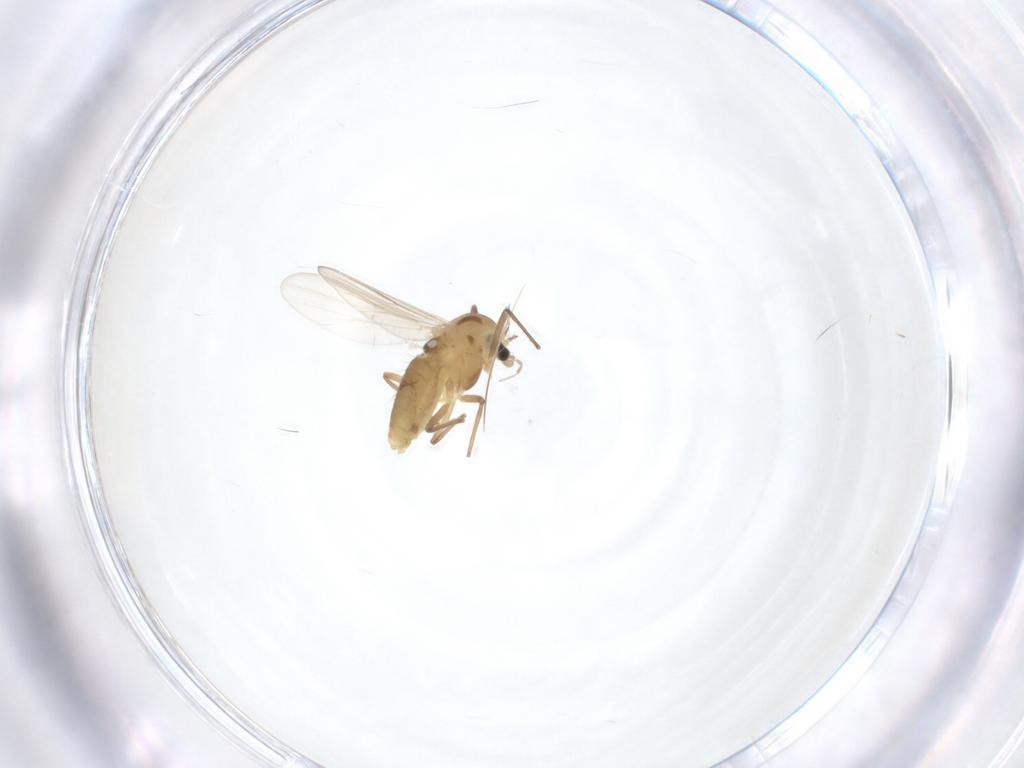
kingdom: Animalia
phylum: Arthropoda
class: Insecta
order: Diptera
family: Chironomidae
